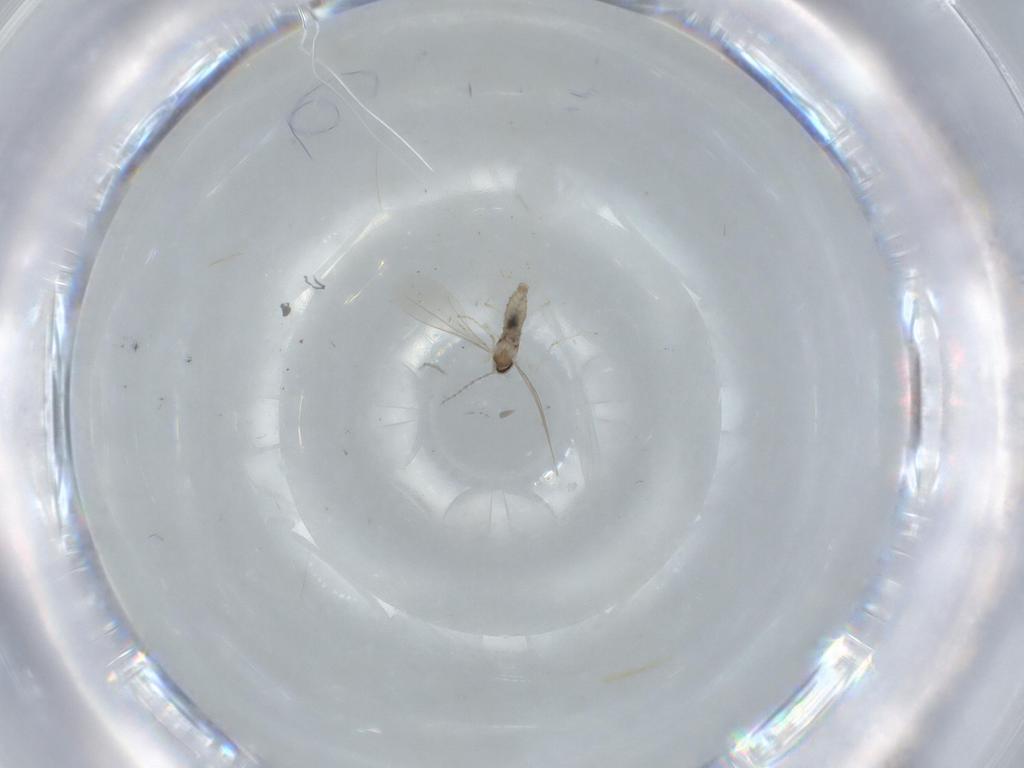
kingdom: Animalia
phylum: Arthropoda
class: Insecta
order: Diptera
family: Cecidomyiidae
